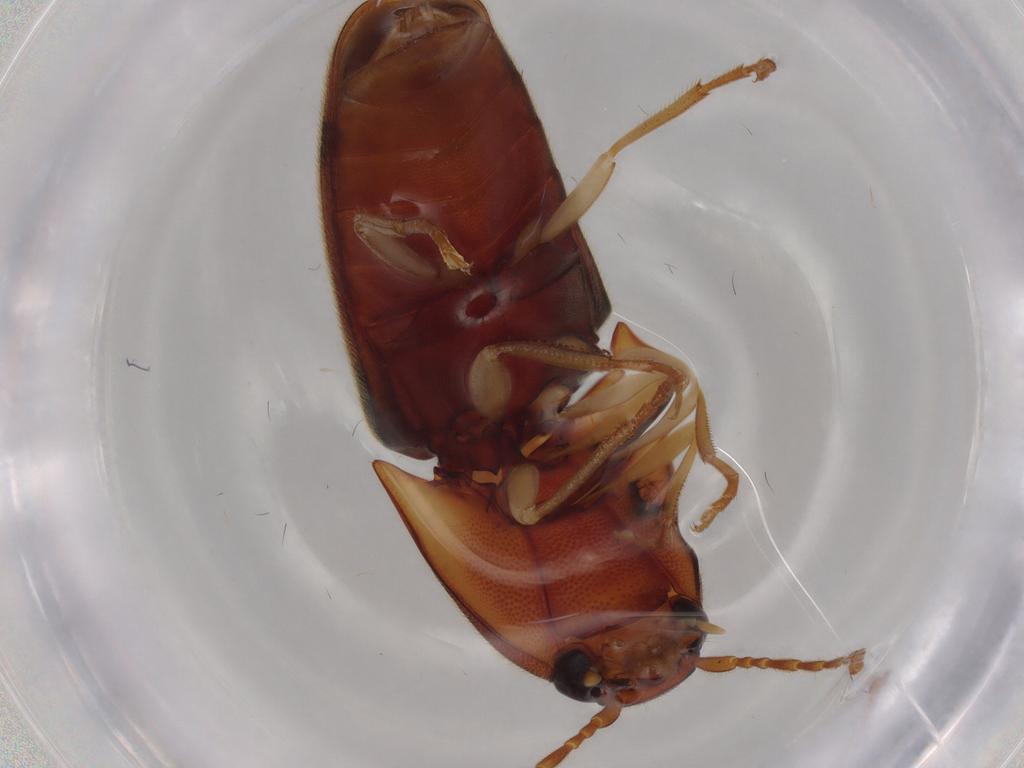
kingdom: Animalia
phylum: Arthropoda
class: Insecta
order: Coleoptera
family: Elateridae
